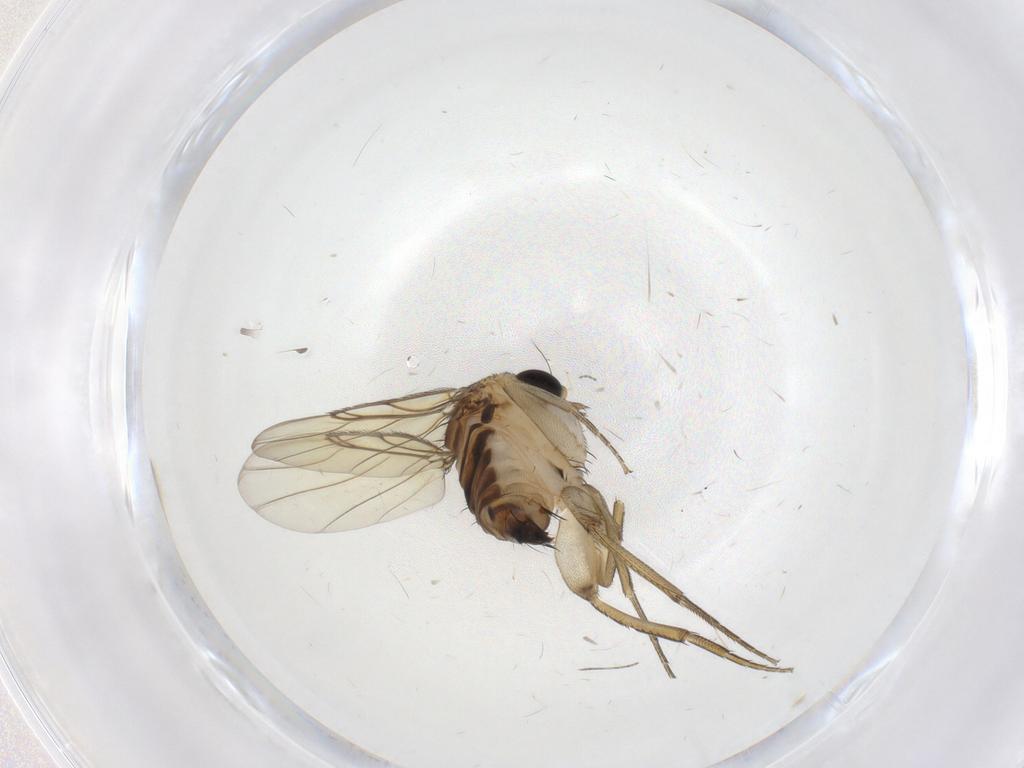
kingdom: Animalia
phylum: Arthropoda
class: Insecta
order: Diptera
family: Phoridae
